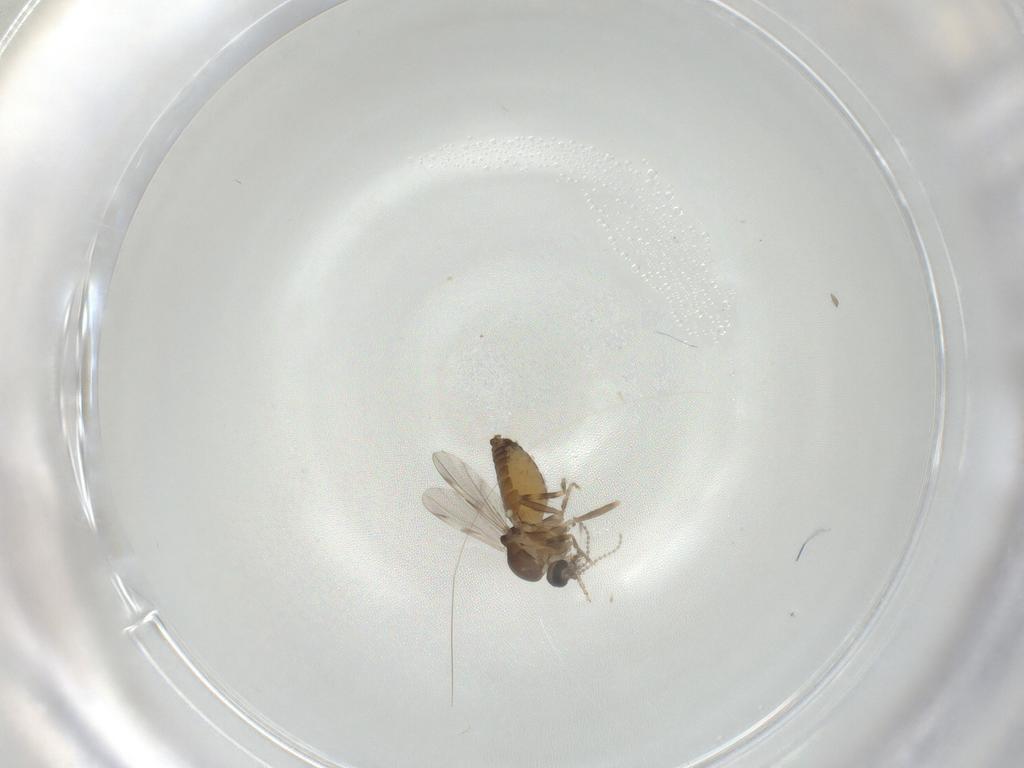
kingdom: Animalia
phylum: Arthropoda
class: Insecta
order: Diptera
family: Ceratopogonidae
